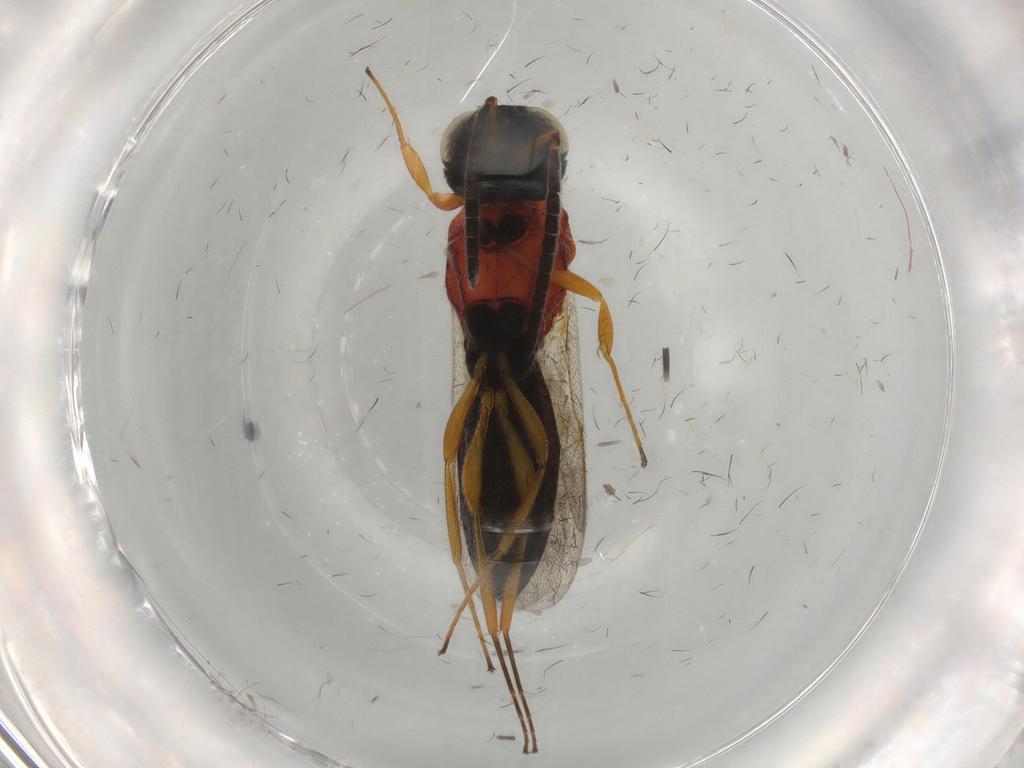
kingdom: Animalia
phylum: Arthropoda
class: Insecta
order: Hymenoptera
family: Scelionidae
